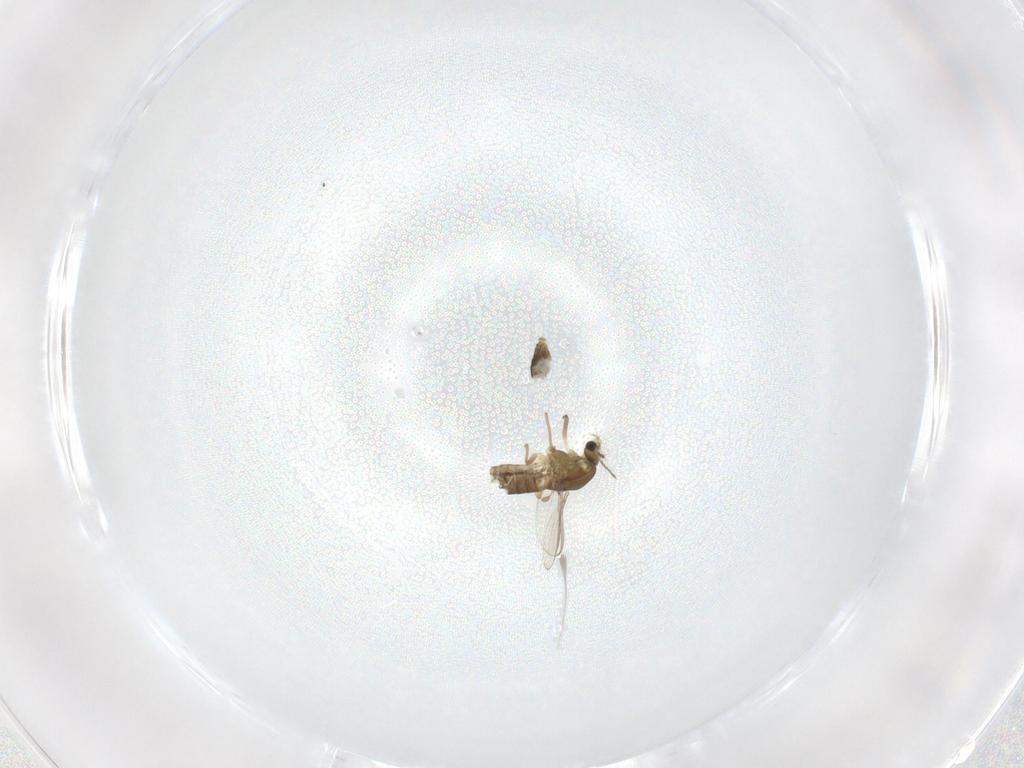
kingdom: Animalia
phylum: Arthropoda
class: Insecta
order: Diptera
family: Chironomidae
